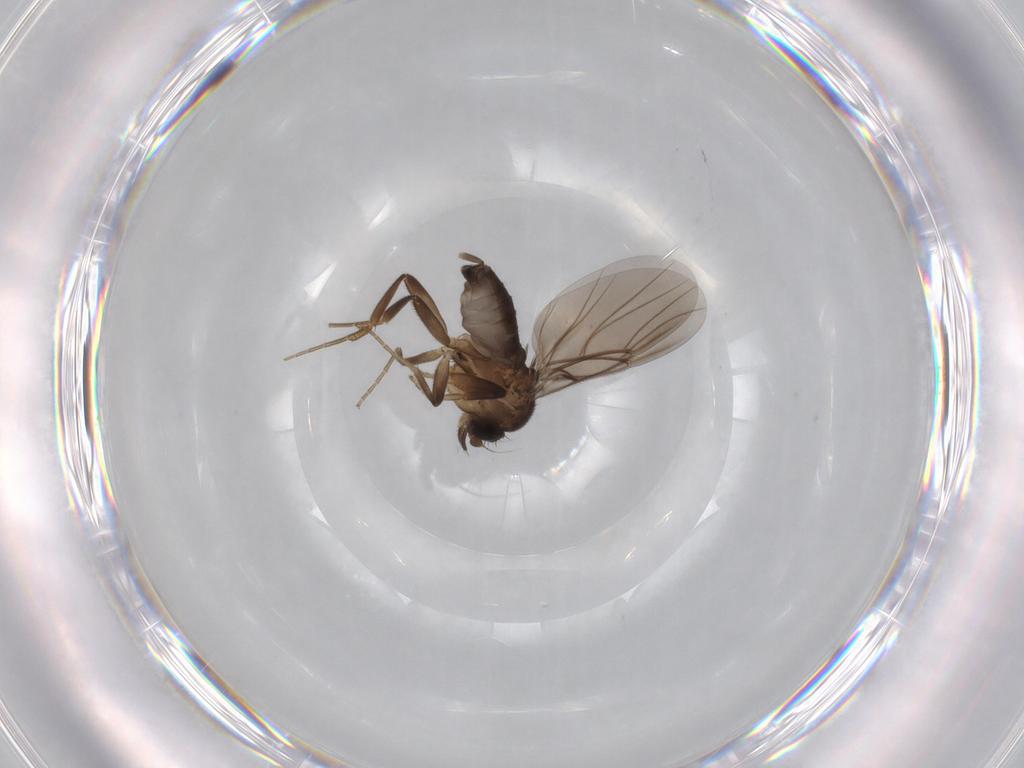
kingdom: Animalia
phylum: Arthropoda
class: Insecta
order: Diptera
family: Phoridae
